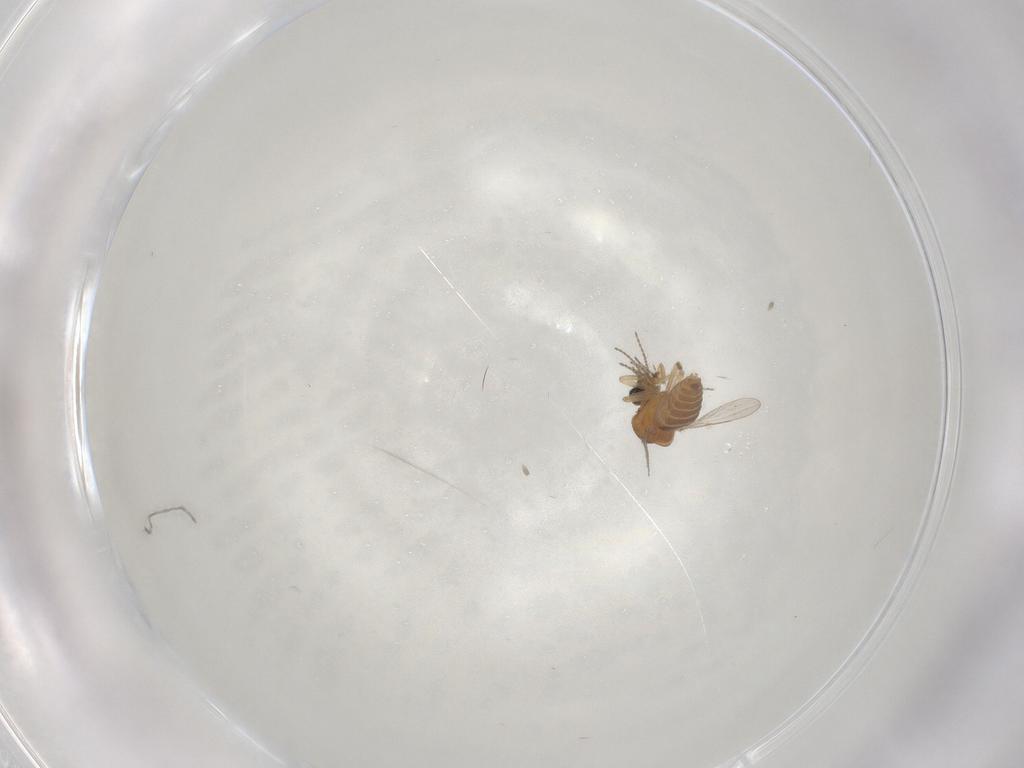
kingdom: Animalia
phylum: Arthropoda
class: Insecta
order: Diptera
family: Ceratopogonidae
